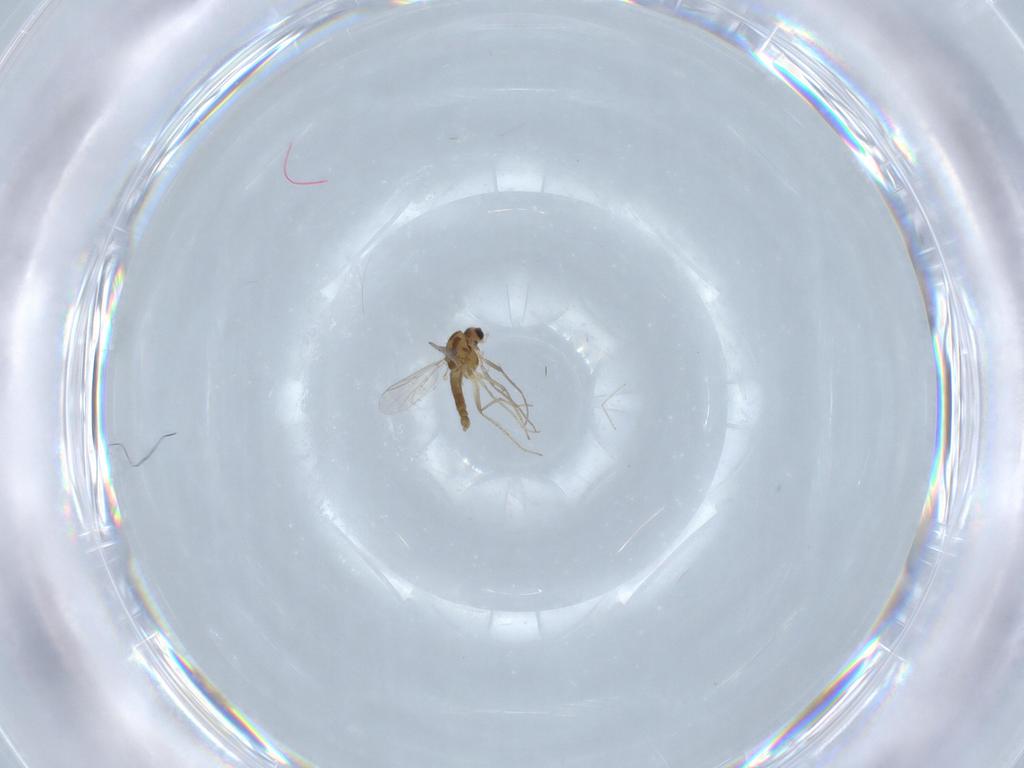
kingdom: Animalia
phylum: Arthropoda
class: Insecta
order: Diptera
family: Chironomidae
